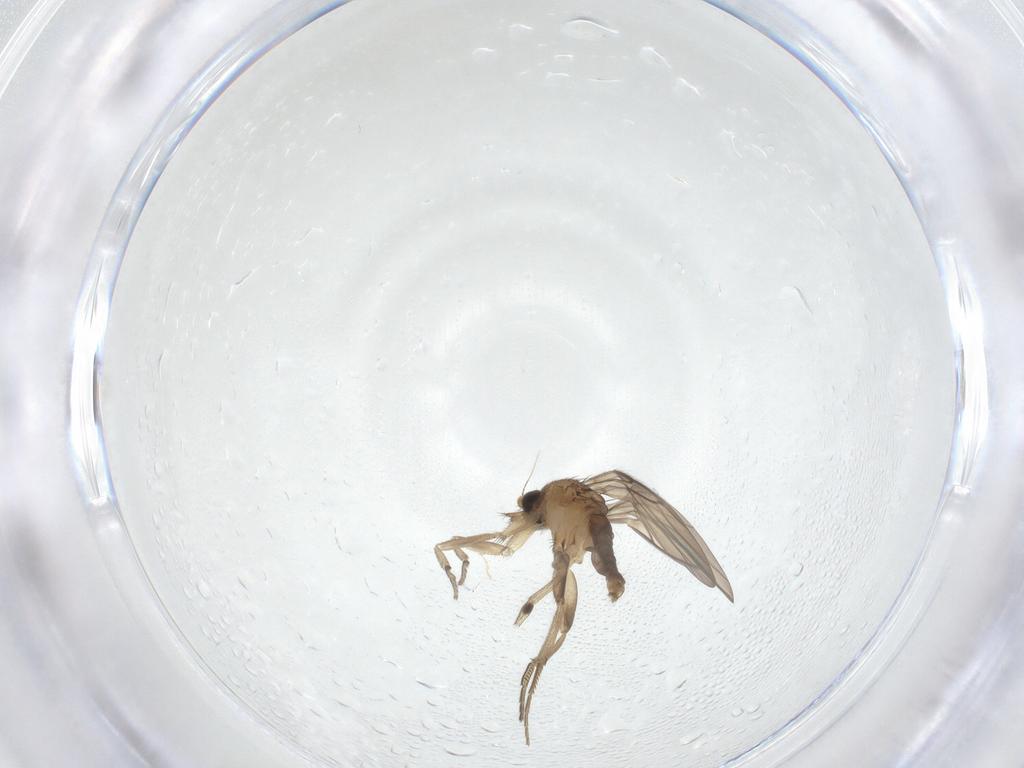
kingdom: Animalia
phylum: Arthropoda
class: Insecta
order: Diptera
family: Phoridae
